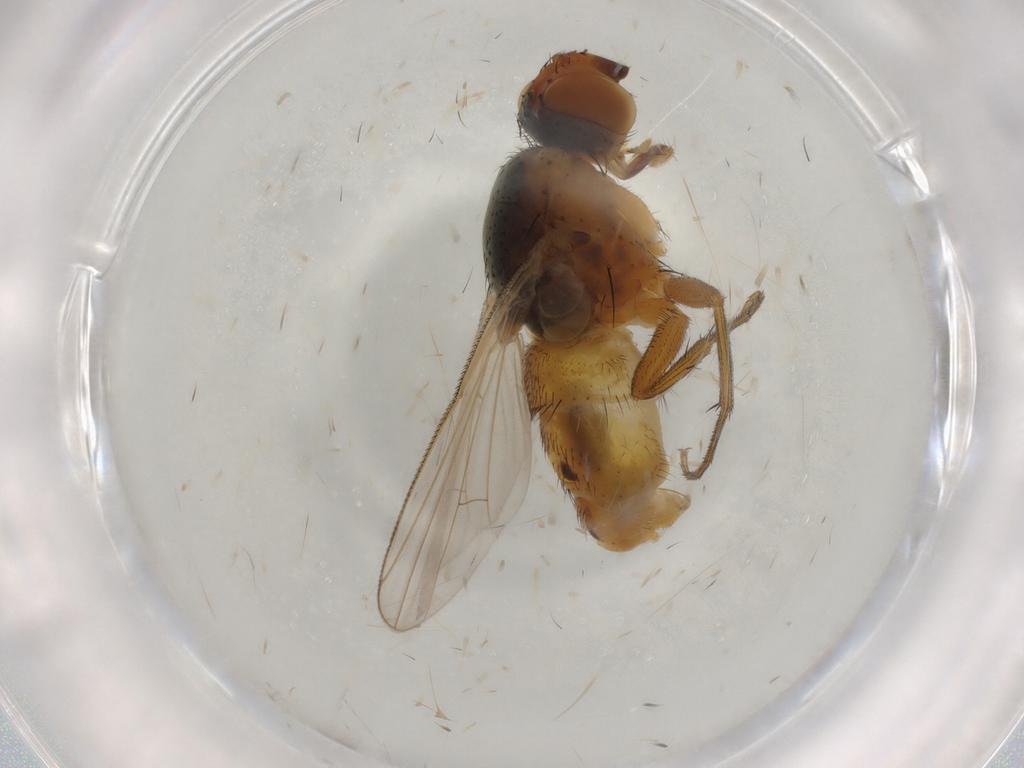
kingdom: Animalia
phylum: Arthropoda
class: Insecta
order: Diptera
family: Muscidae
